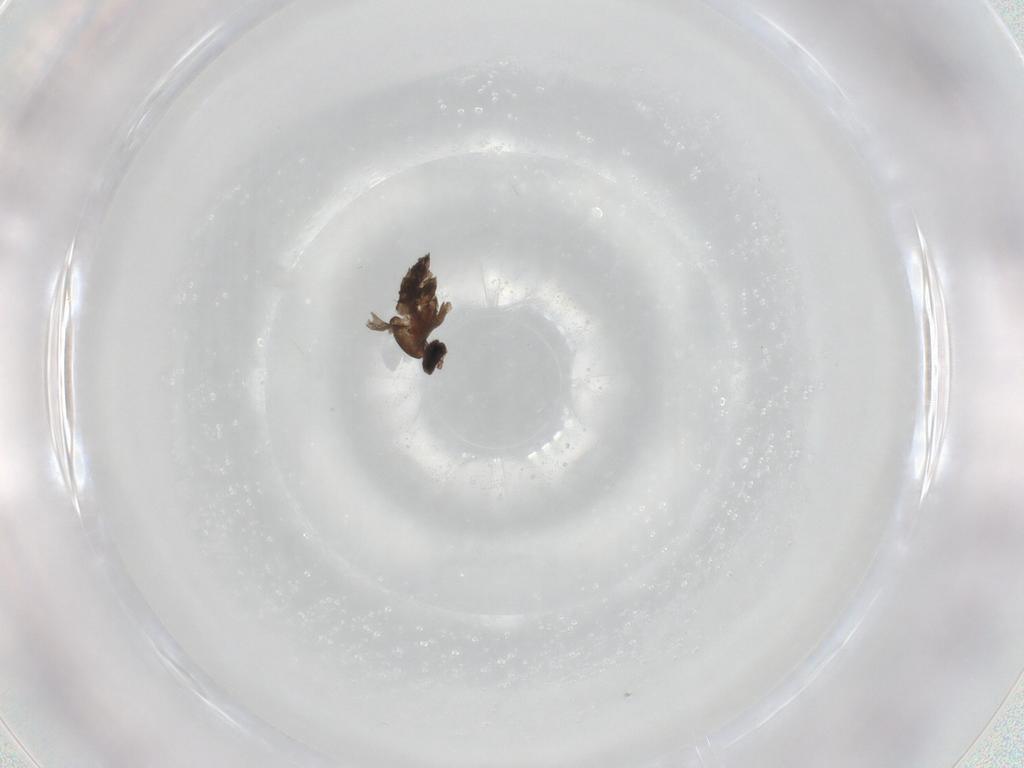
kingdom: Animalia
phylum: Arthropoda
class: Insecta
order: Diptera
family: Chironomidae
